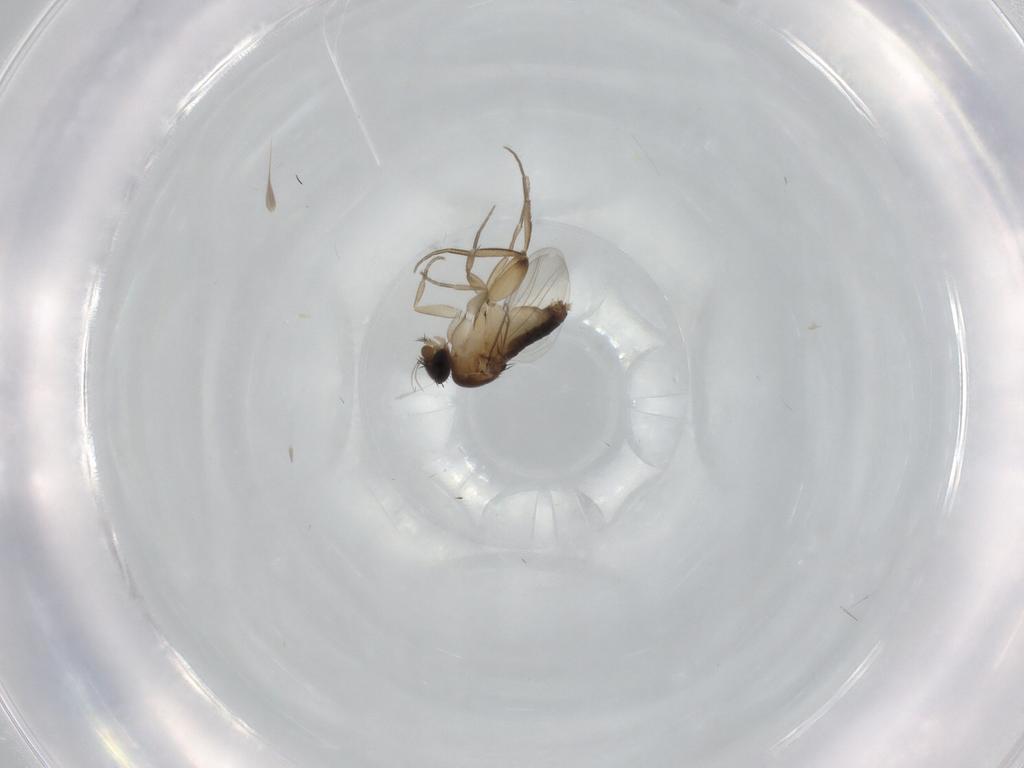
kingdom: Animalia
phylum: Arthropoda
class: Insecta
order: Diptera
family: Phoridae
